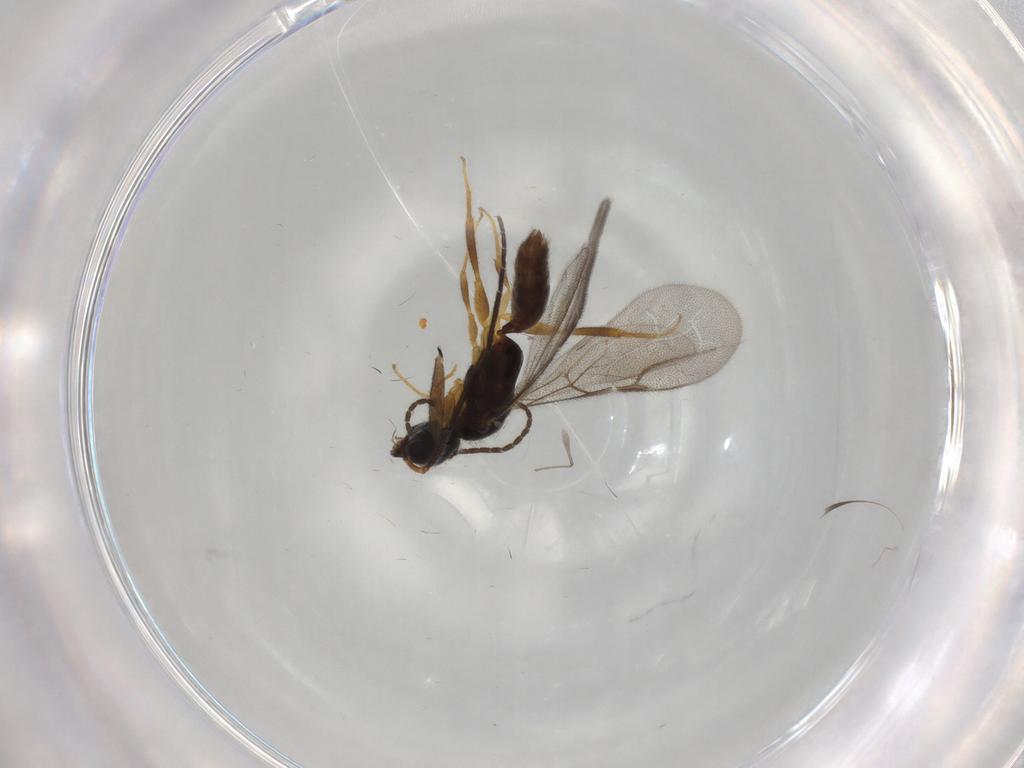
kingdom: Animalia
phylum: Arthropoda
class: Insecta
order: Hymenoptera
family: Bethylidae
